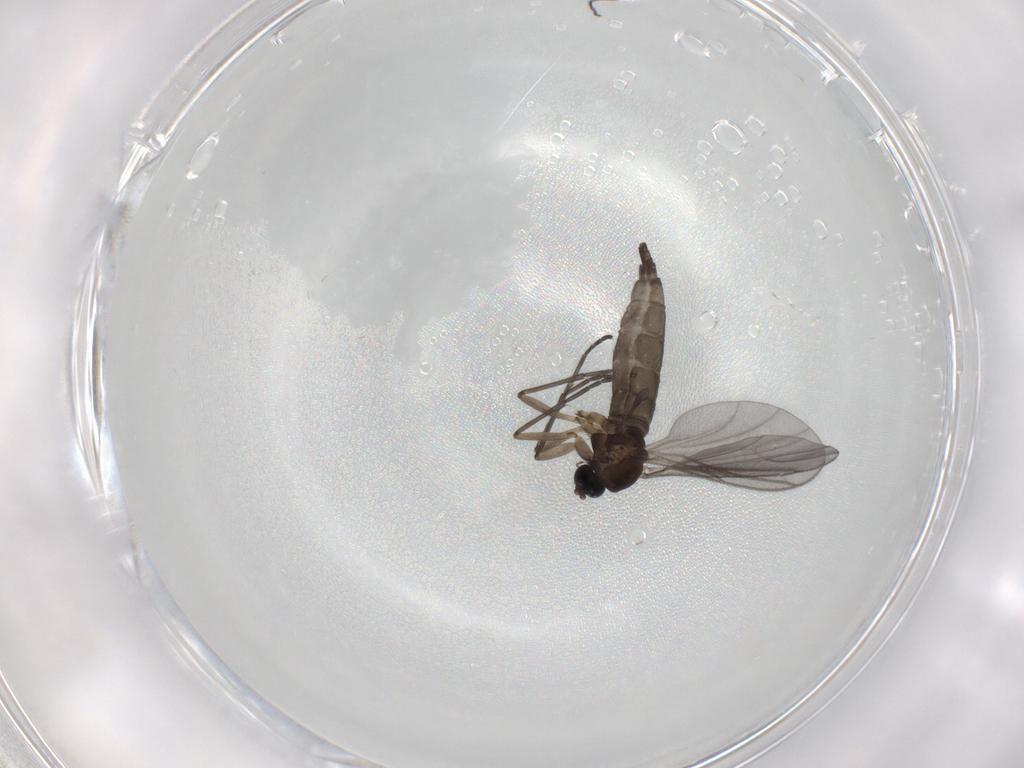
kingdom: Animalia
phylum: Arthropoda
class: Insecta
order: Diptera
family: Sciaridae
